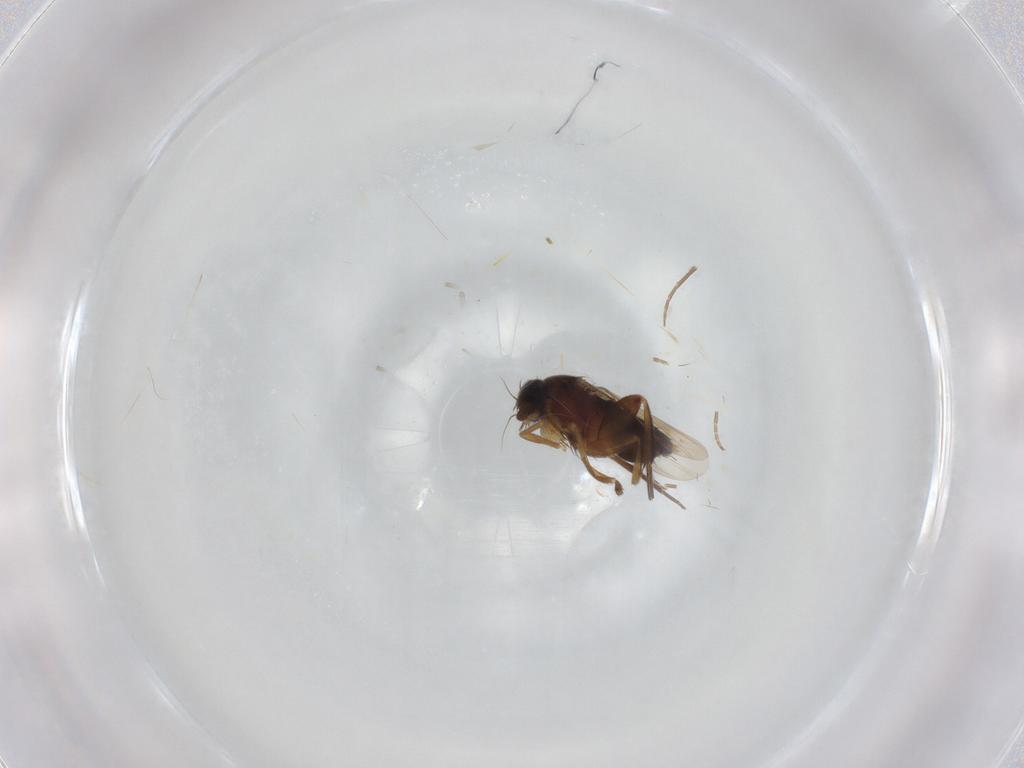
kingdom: Animalia
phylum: Arthropoda
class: Insecta
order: Diptera
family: Phoridae
